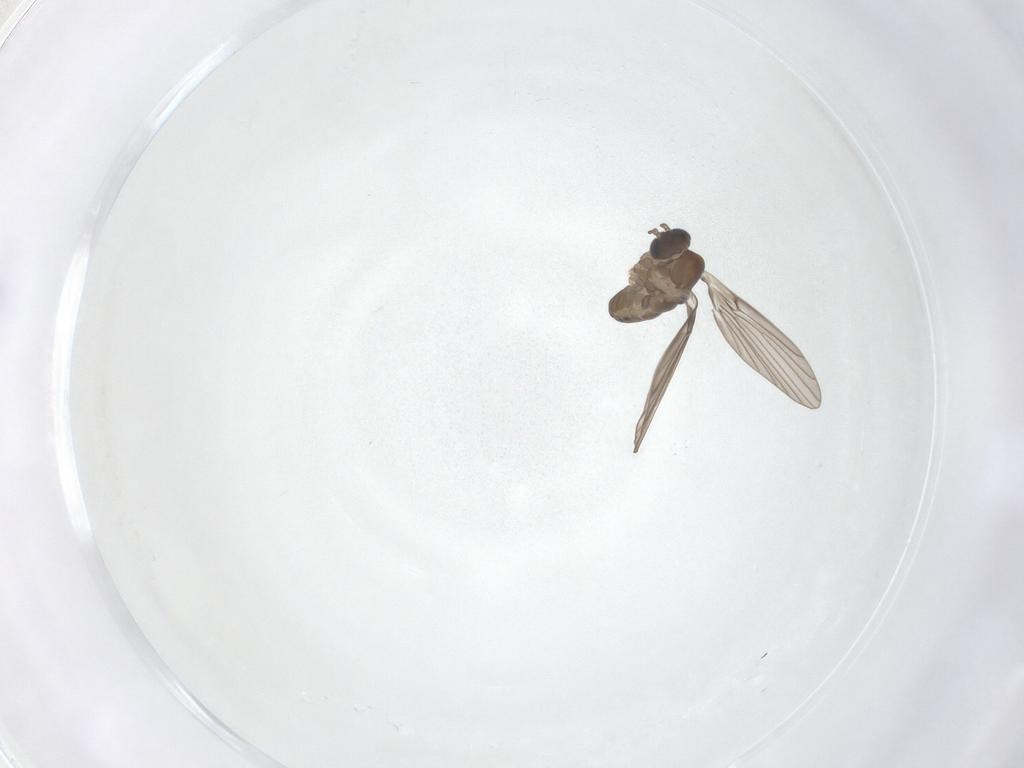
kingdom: Animalia
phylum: Arthropoda
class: Insecta
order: Diptera
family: Psychodidae
